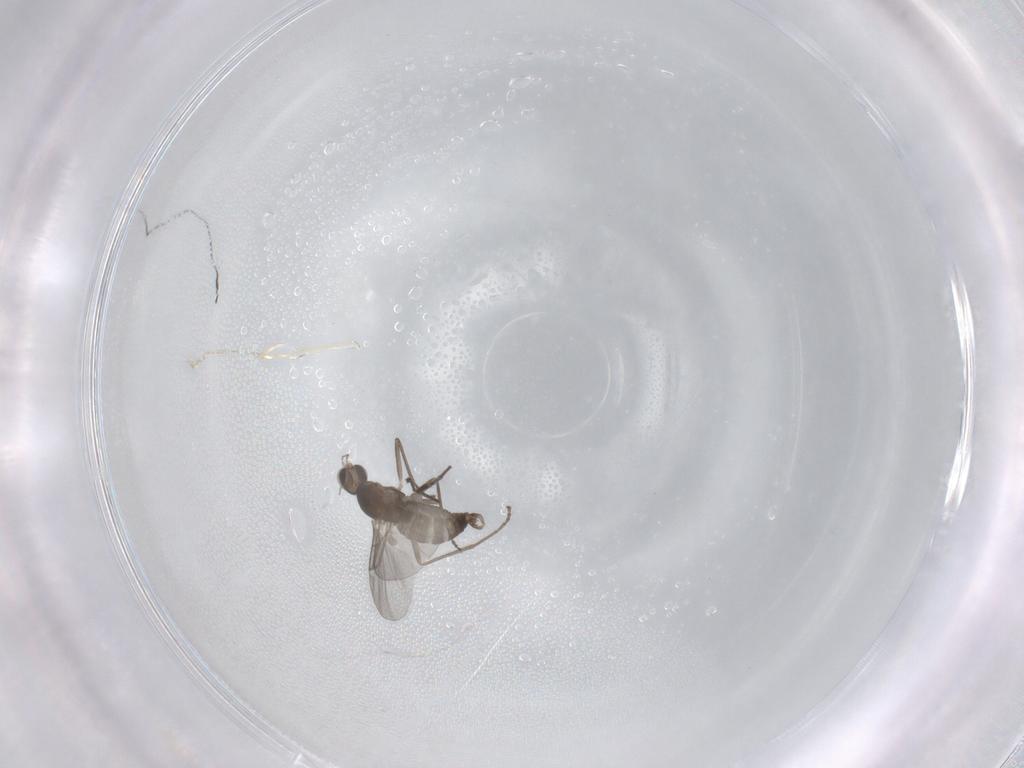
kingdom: Animalia
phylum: Arthropoda
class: Insecta
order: Diptera
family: Cecidomyiidae
